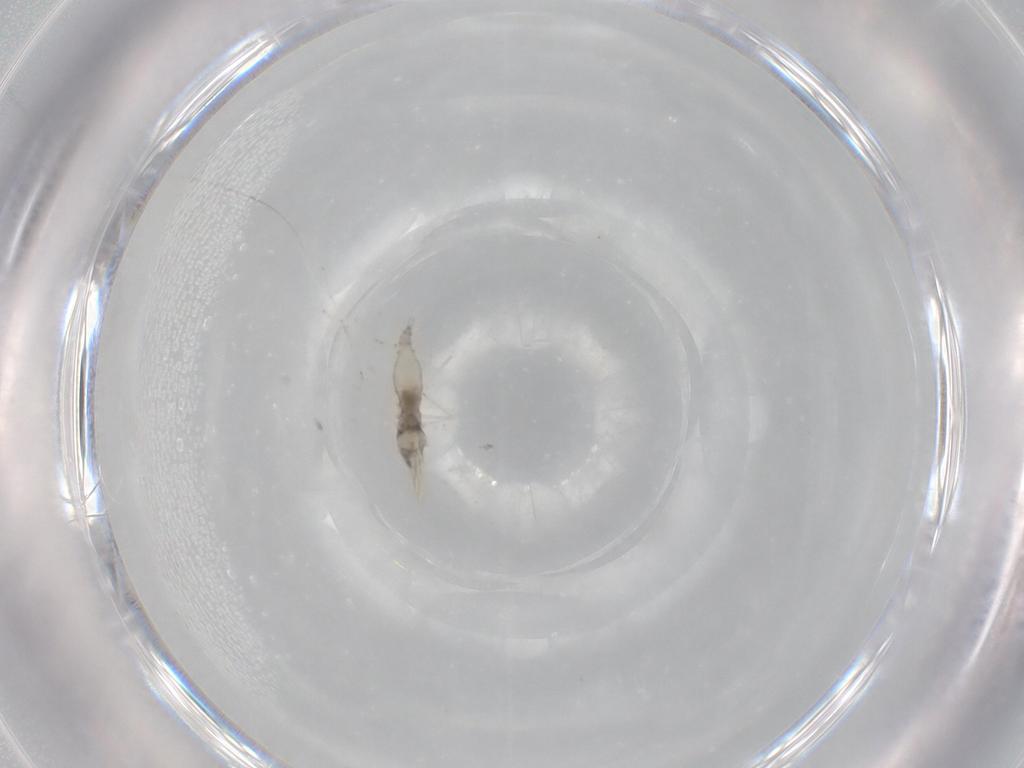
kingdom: Animalia
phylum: Arthropoda
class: Insecta
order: Diptera
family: Cecidomyiidae
